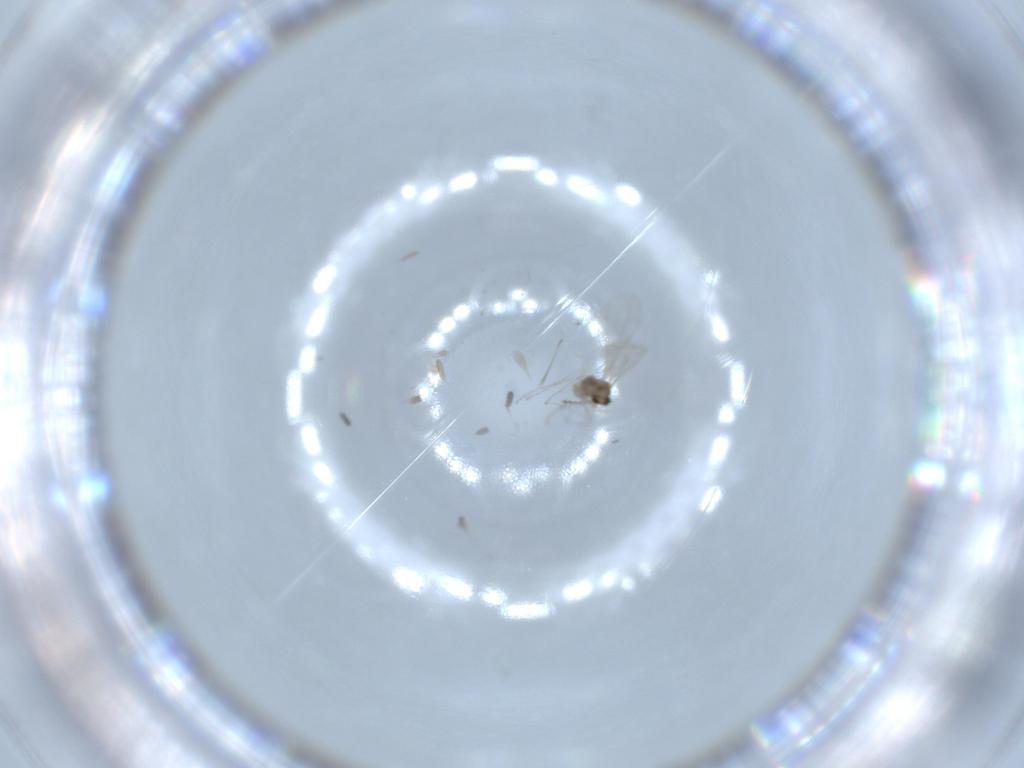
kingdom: Animalia
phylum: Arthropoda
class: Insecta
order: Diptera
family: Cecidomyiidae
